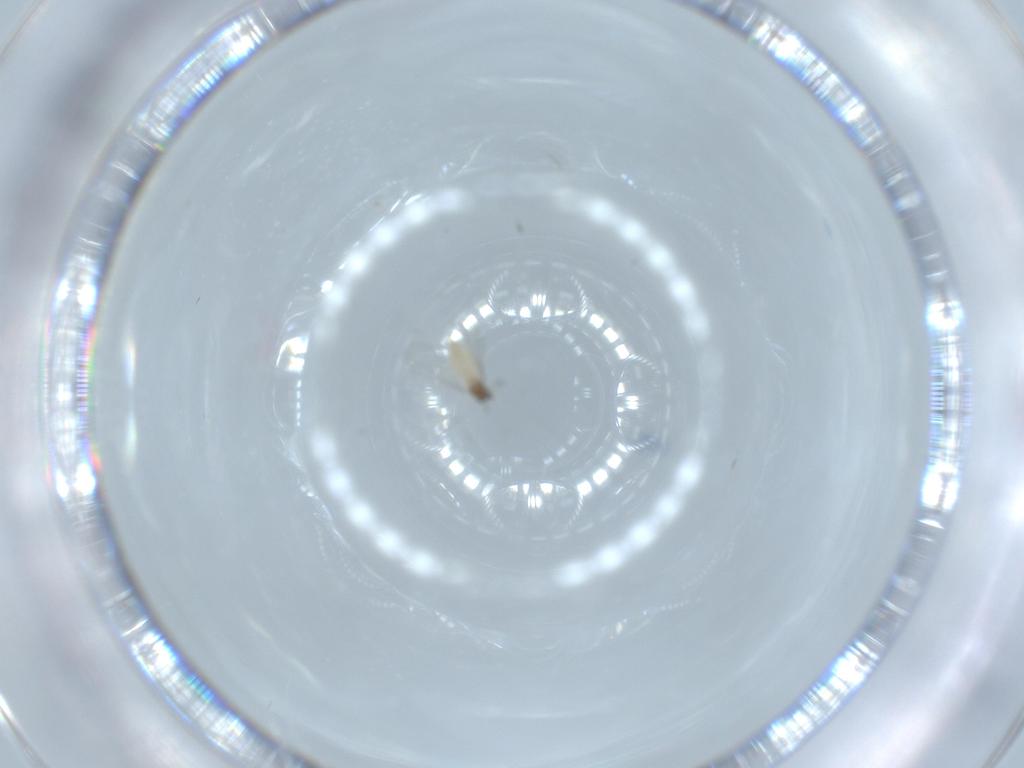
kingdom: Animalia
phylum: Arthropoda
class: Insecta
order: Diptera
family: Cecidomyiidae
